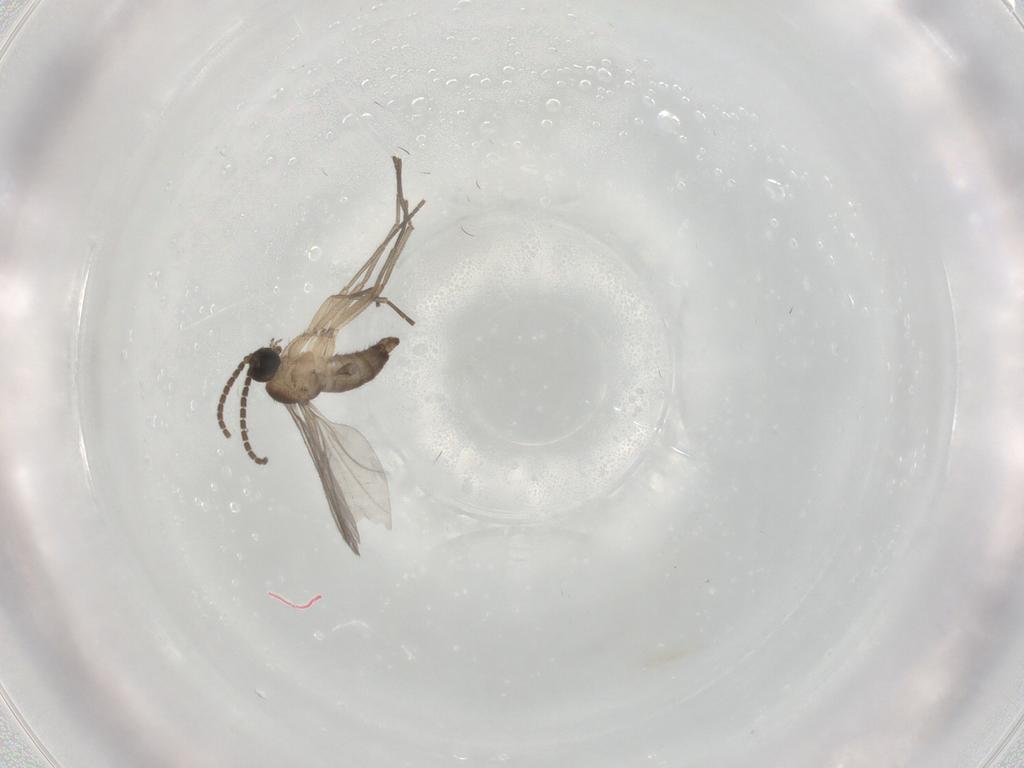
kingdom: Animalia
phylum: Arthropoda
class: Insecta
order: Diptera
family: Sciaridae
